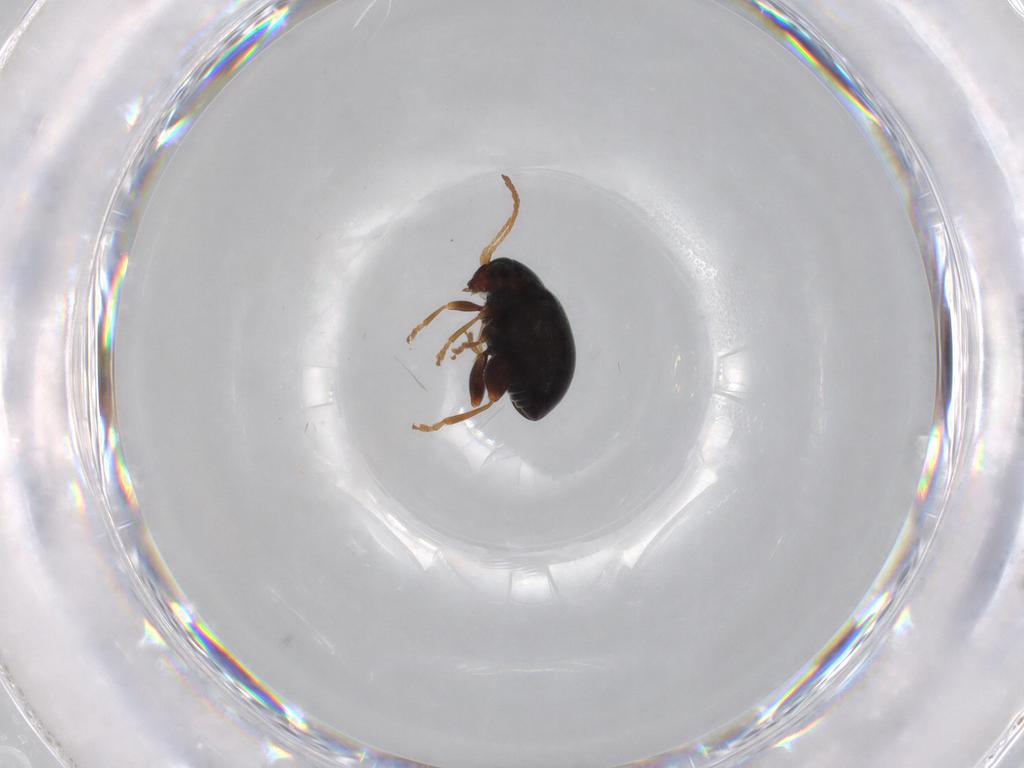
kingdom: Animalia
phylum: Arthropoda
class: Insecta
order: Coleoptera
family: Chrysomelidae
